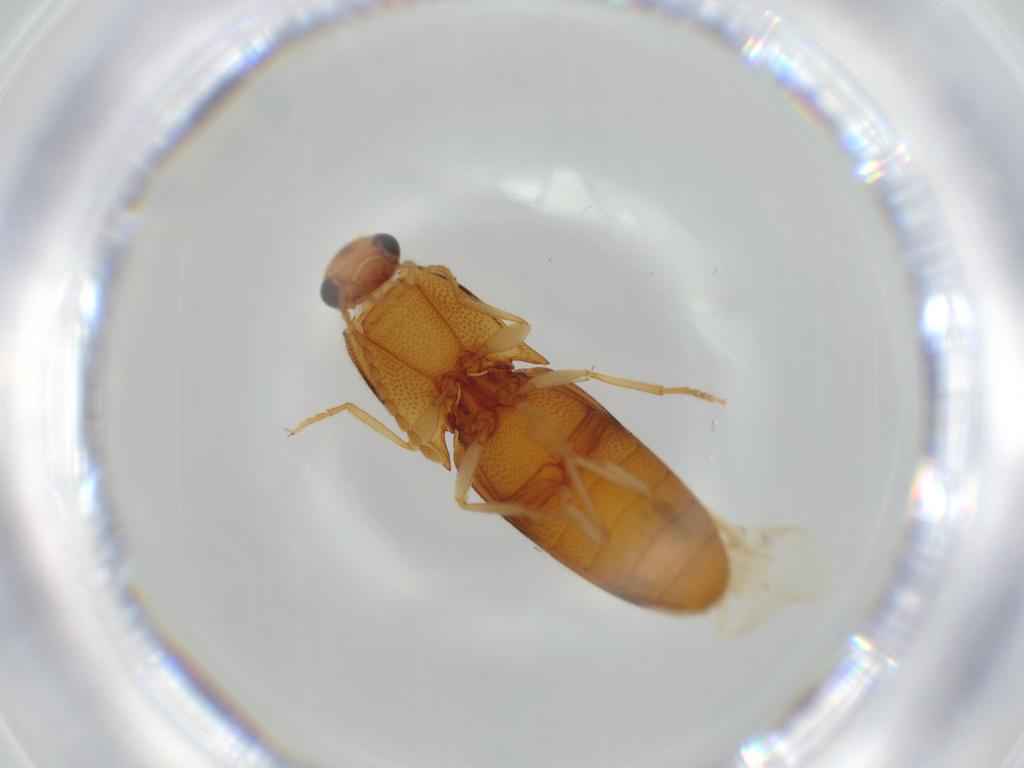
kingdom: Animalia
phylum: Arthropoda
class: Insecta
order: Coleoptera
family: Elateridae
